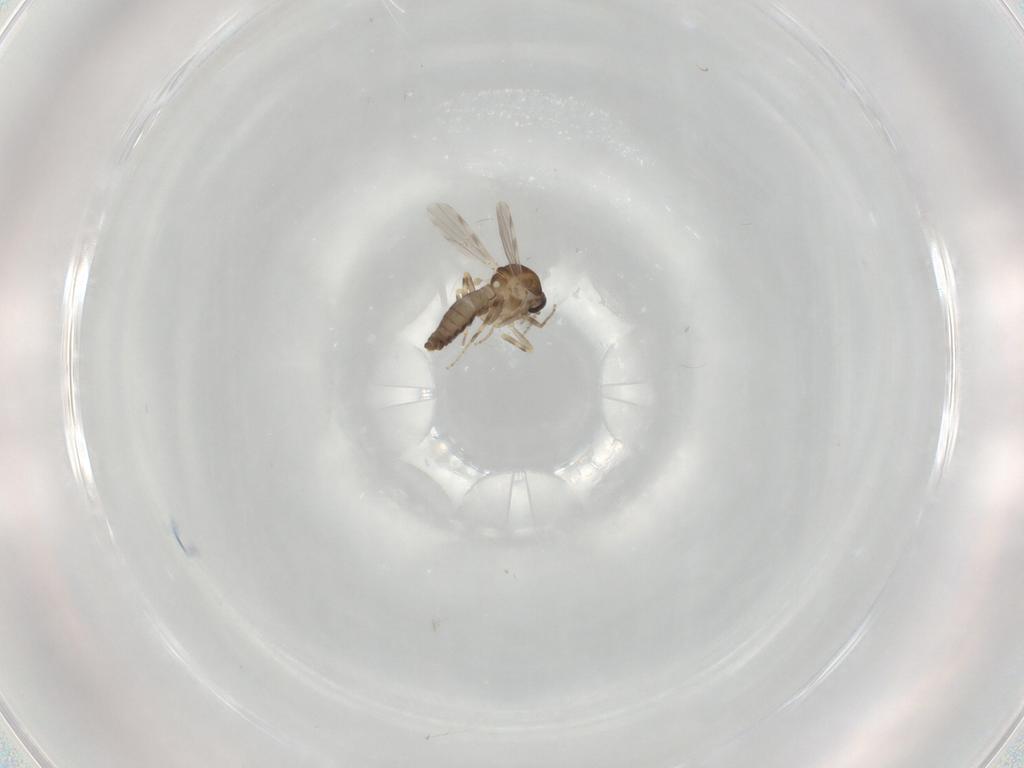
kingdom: Animalia
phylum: Arthropoda
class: Insecta
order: Diptera
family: Ceratopogonidae
